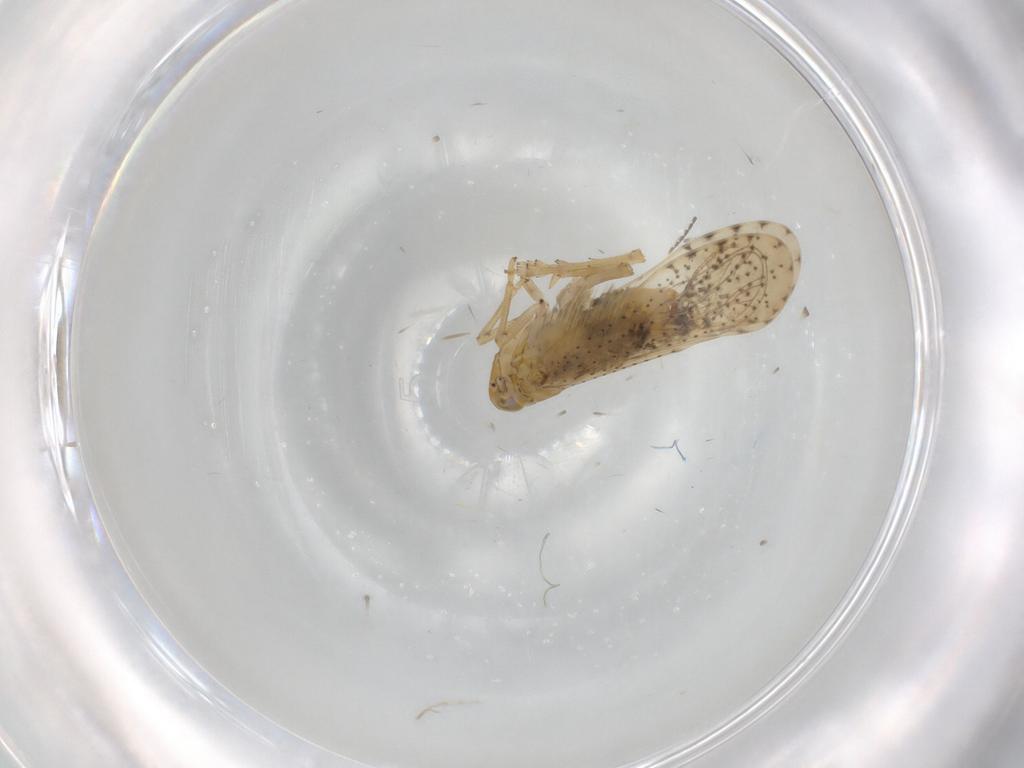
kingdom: Animalia
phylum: Arthropoda
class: Insecta
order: Hemiptera
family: Delphacidae
